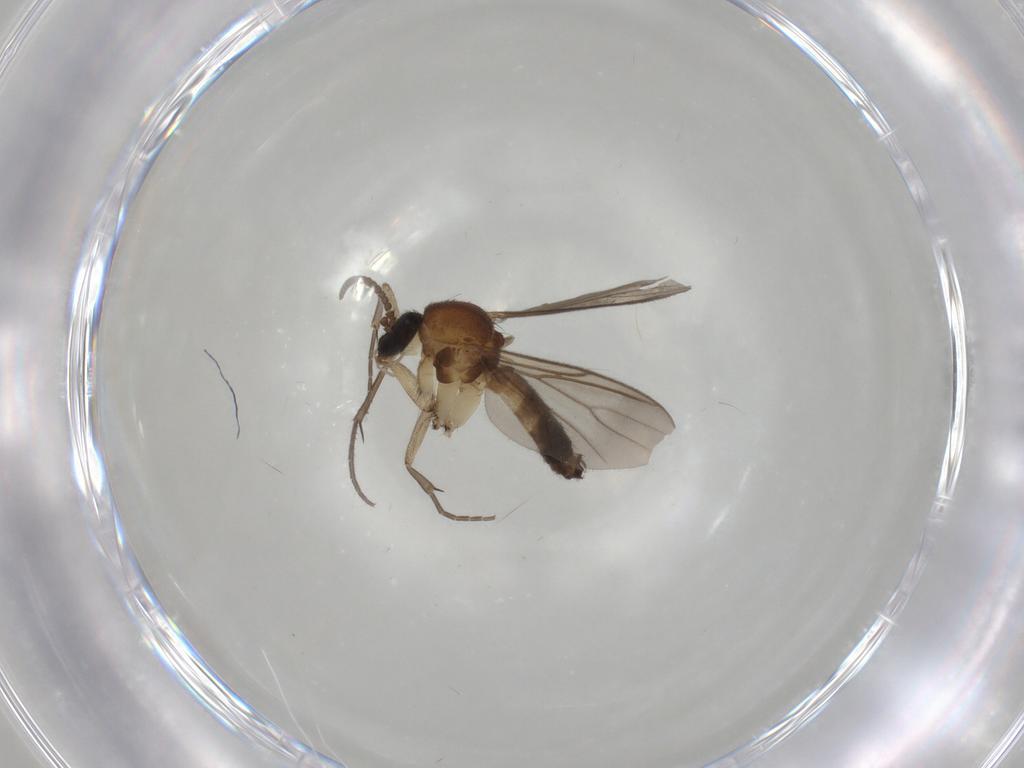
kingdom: Animalia
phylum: Arthropoda
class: Insecta
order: Diptera
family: Mycetophilidae
